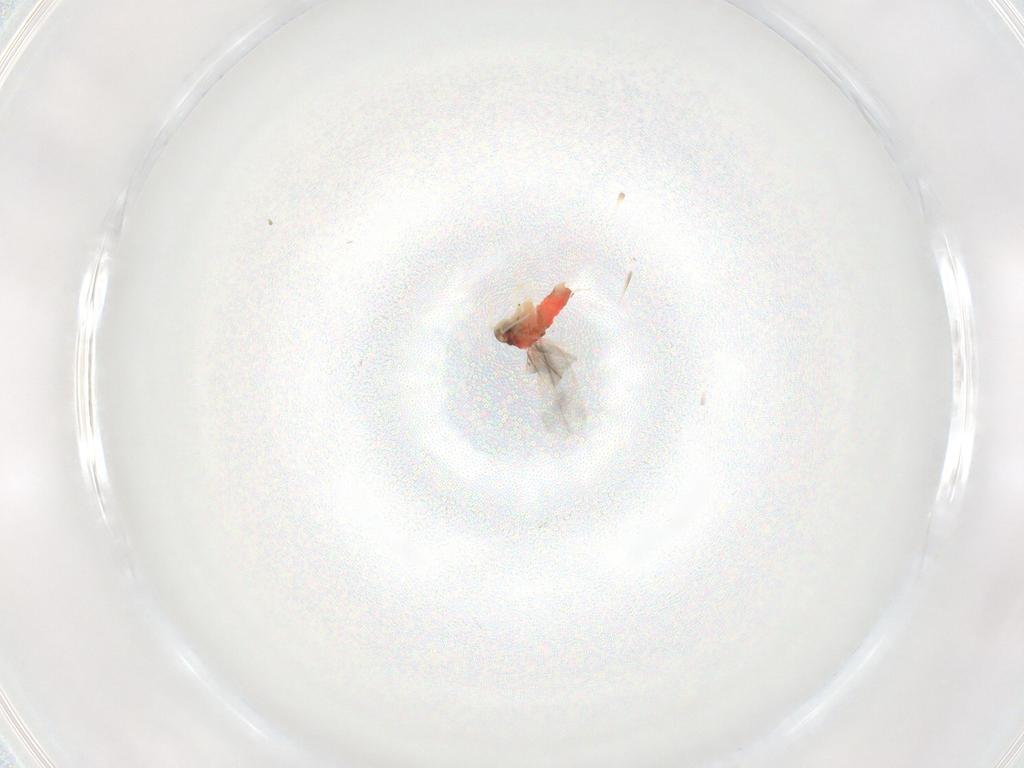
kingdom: Animalia
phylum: Arthropoda
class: Insecta
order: Hemiptera
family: Aleyrodidae
